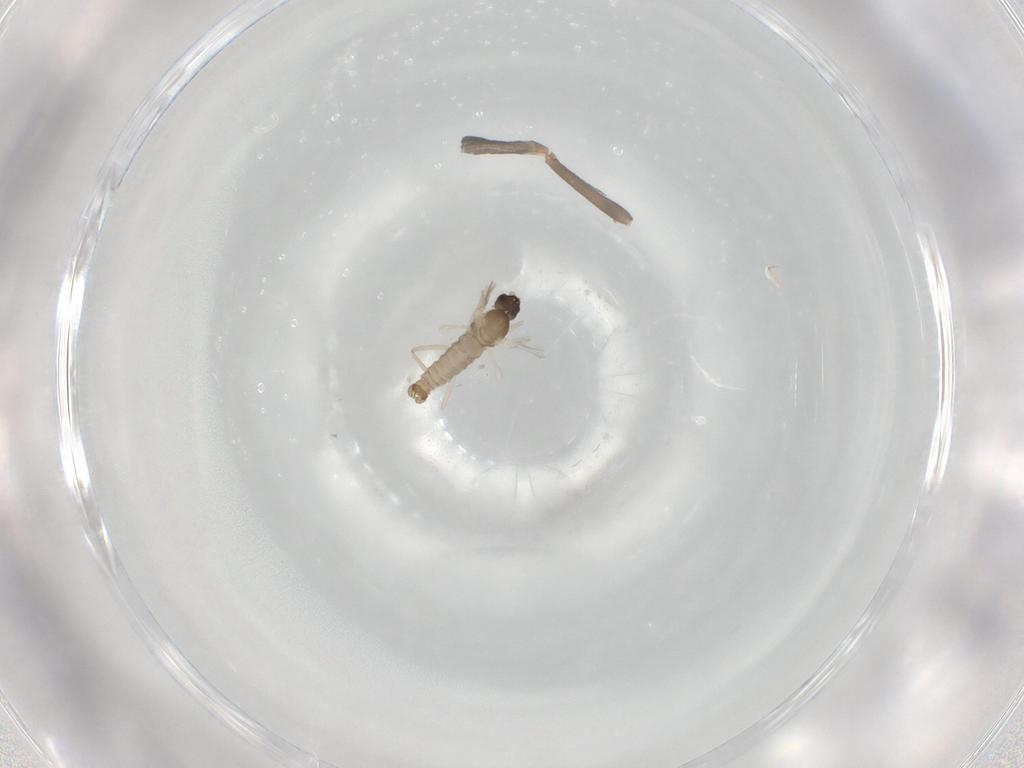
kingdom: Animalia
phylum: Arthropoda
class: Insecta
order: Diptera
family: Cecidomyiidae
